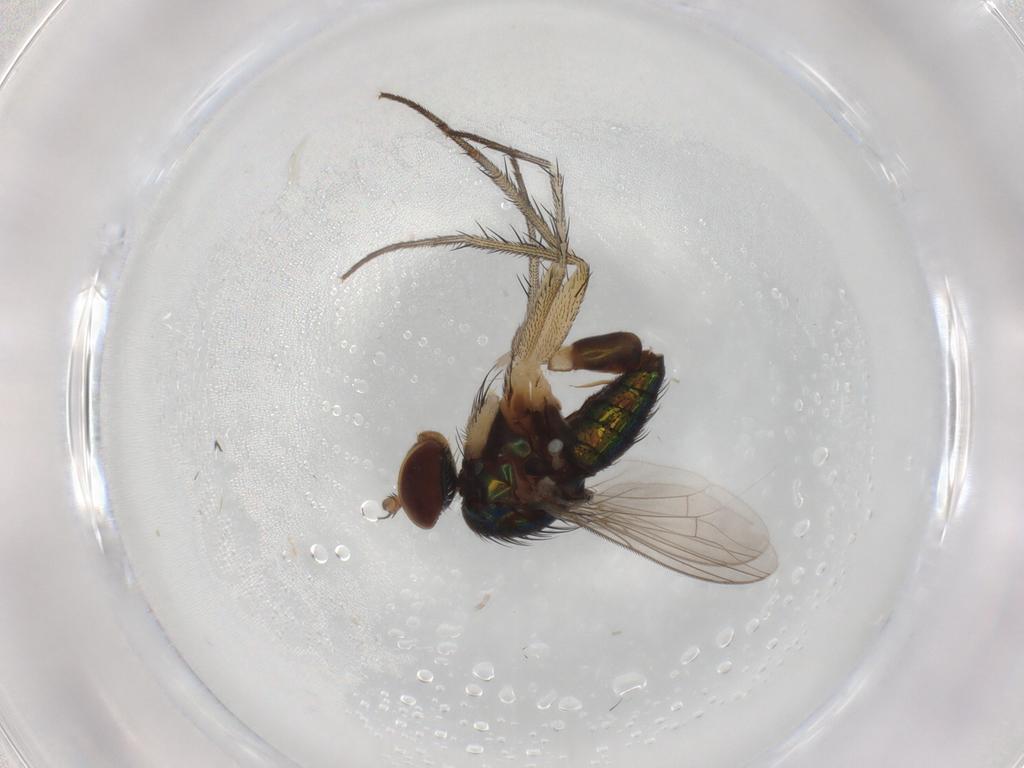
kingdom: Animalia
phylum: Arthropoda
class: Insecta
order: Diptera
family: Dolichopodidae
